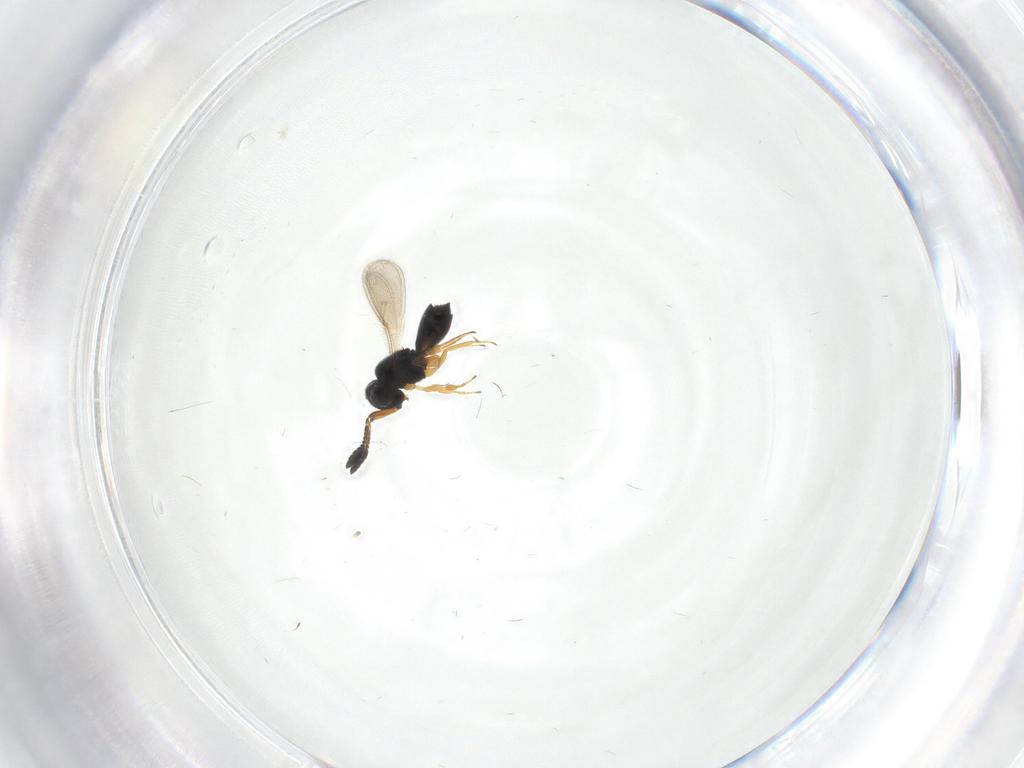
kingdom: Animalia
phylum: Arthropoda
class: Insecta
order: Hymenoptera
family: Scelionidae
